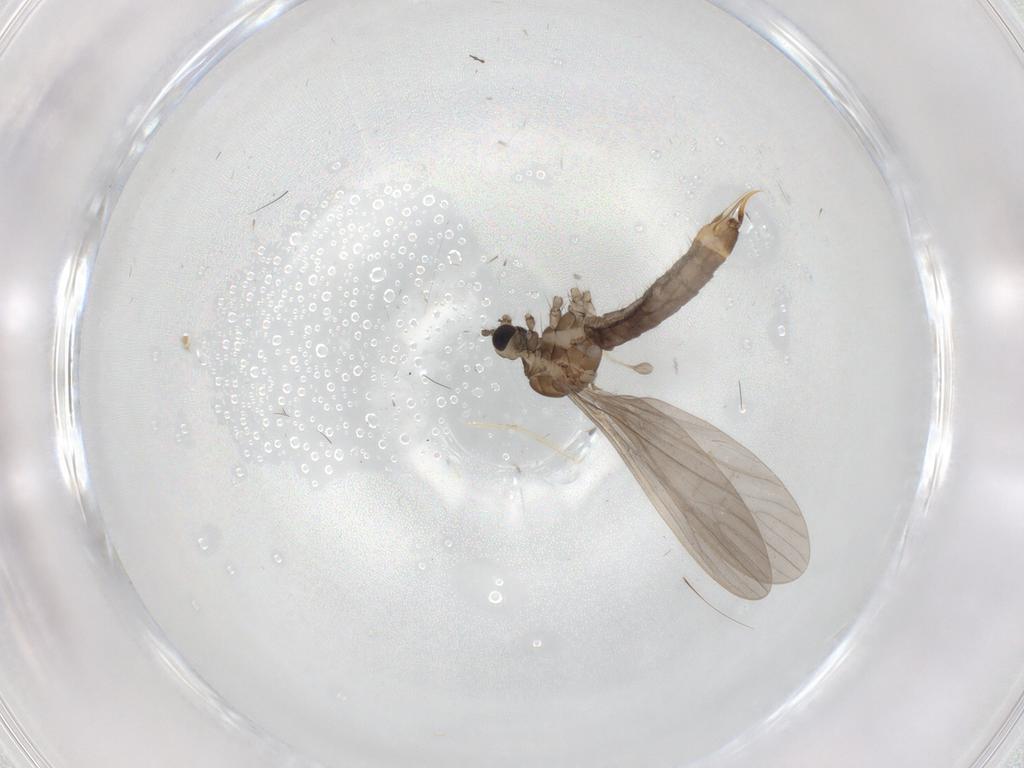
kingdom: Animalia
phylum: Arthropoda
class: Insecta
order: Diptera
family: Limoniidae
